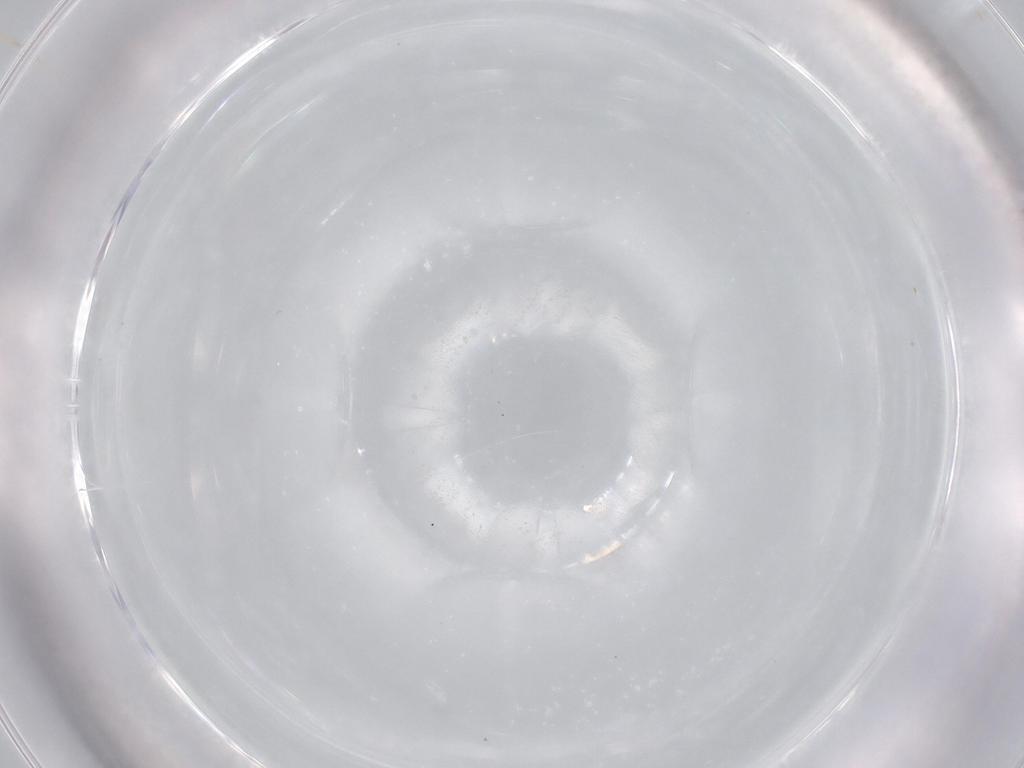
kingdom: Animalia
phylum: Arthropoda
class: Insecta
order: Diptera
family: Cecidomyiidae
